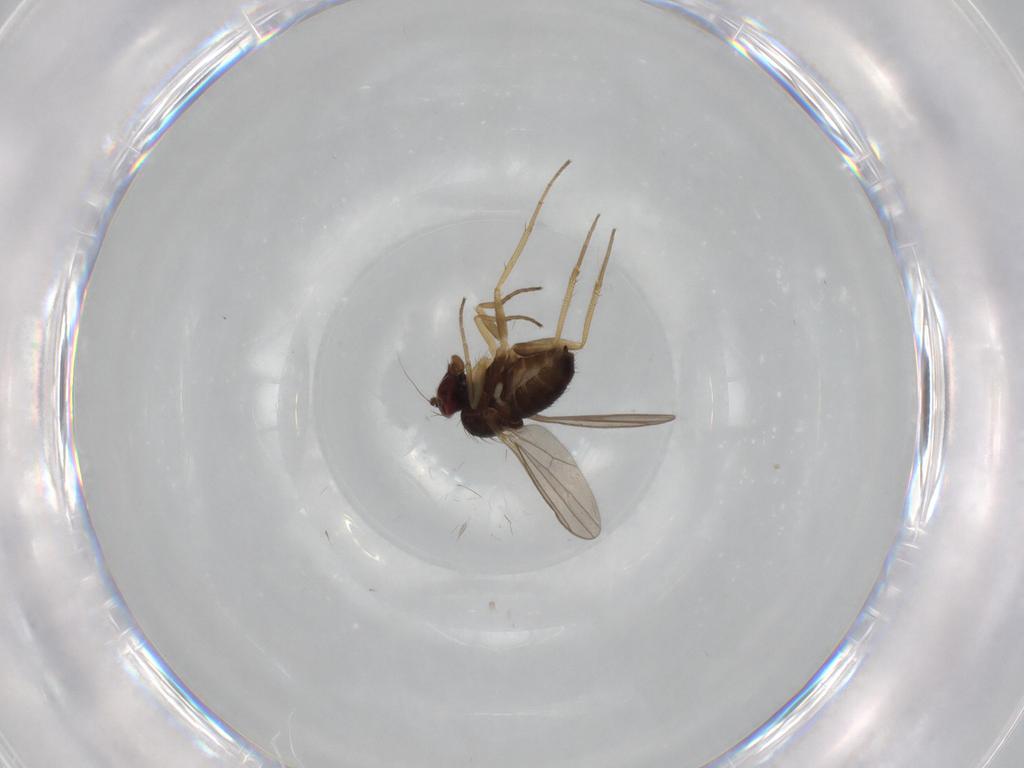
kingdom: Animalia
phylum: Arthropoda
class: Insecta
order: Diptera
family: Dolichopodidae
